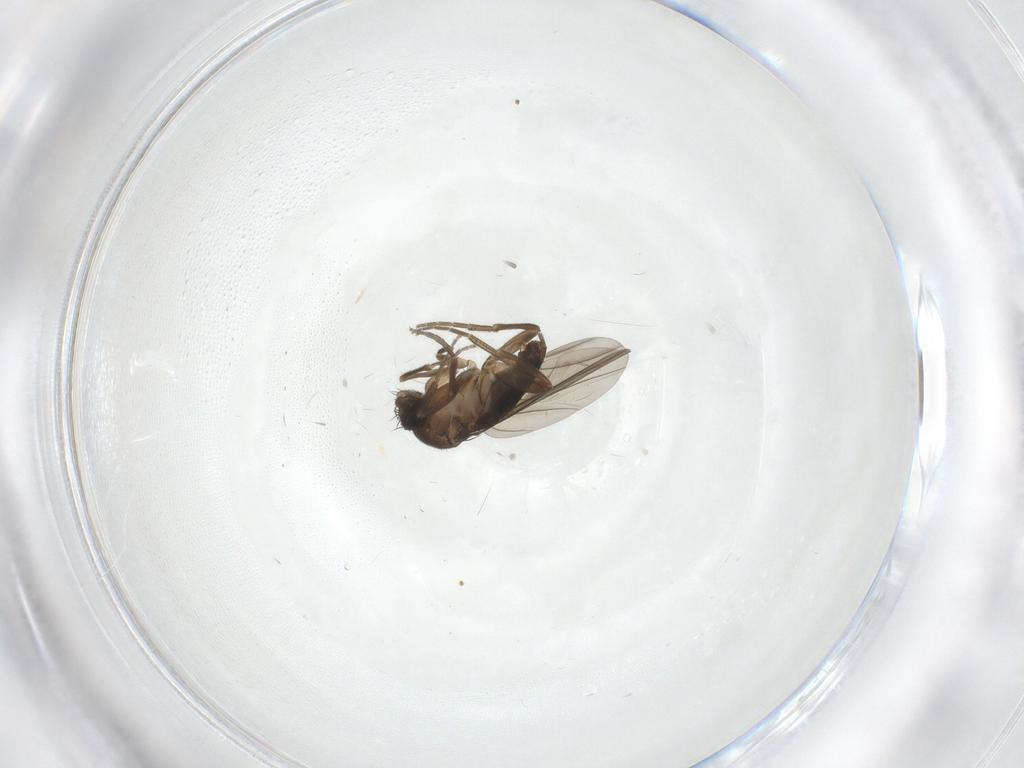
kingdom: Animalia
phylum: Arthropoda
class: Insecta
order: Diptera
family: Phoridae
